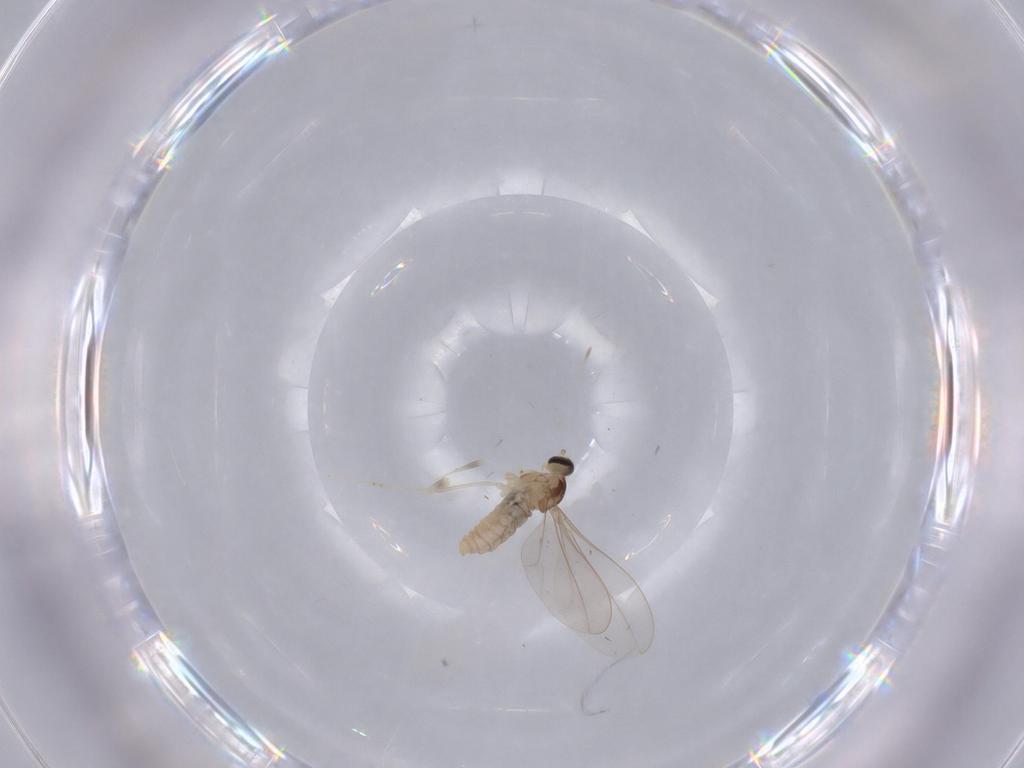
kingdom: Animalia
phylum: Arthropoda
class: Insecta
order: Diptera
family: Cecidomyiidae
